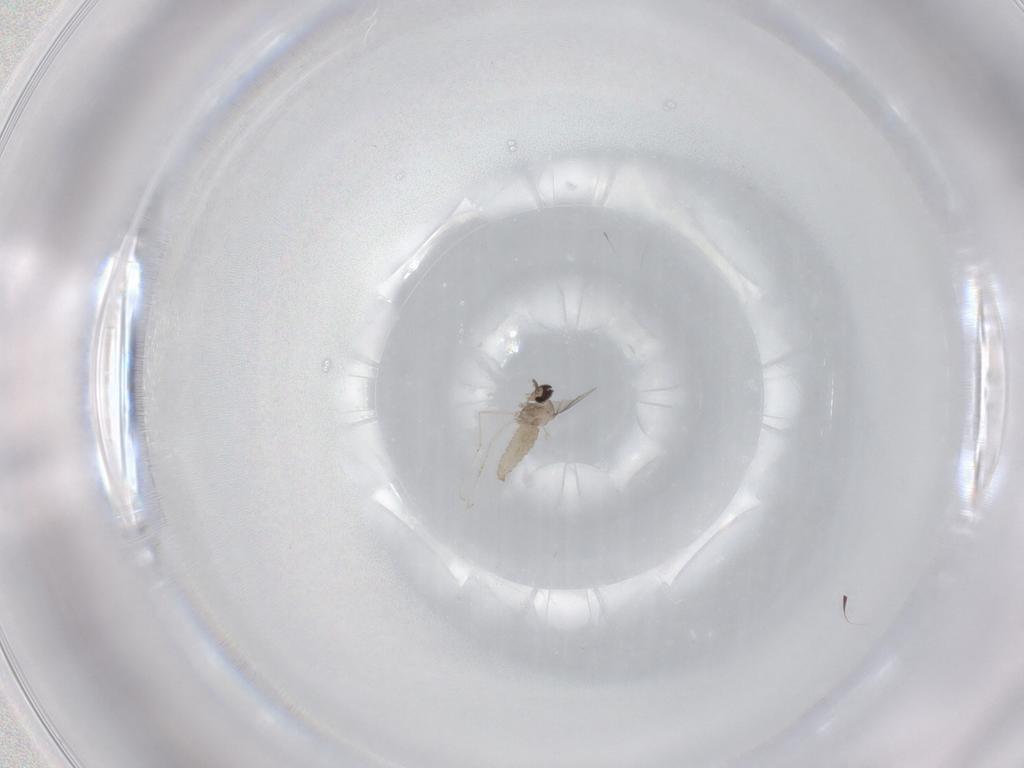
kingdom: Animalia
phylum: Arthropoda
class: Insecta
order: Diptera
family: Cecidomyiidae
